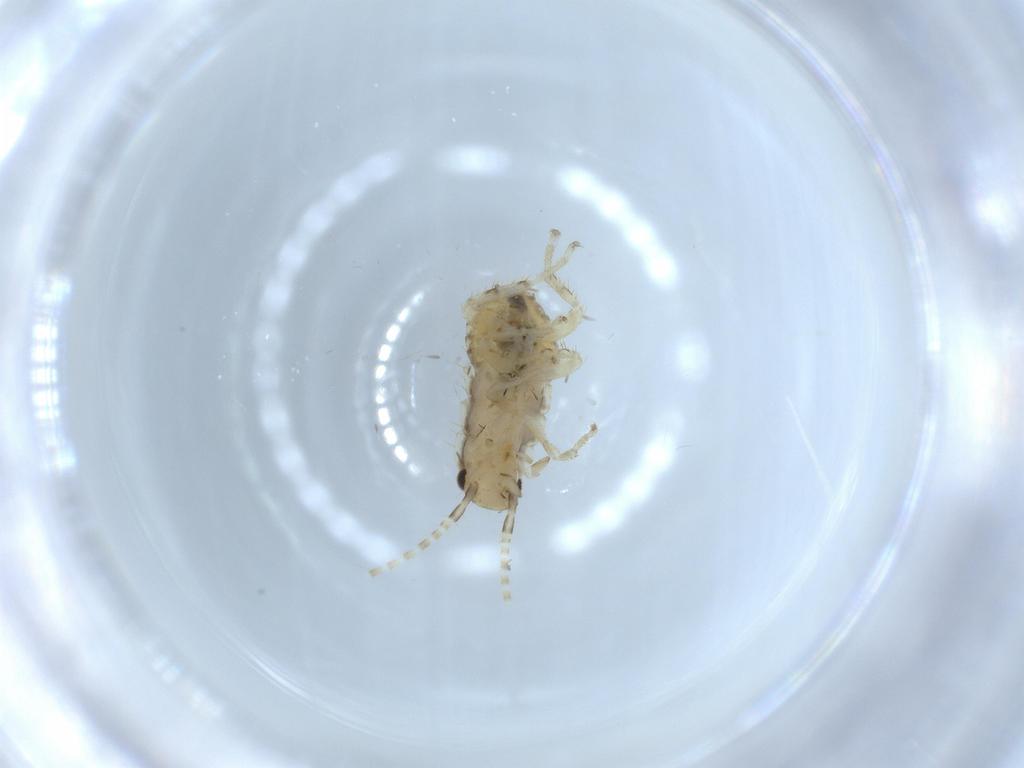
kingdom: Animalia
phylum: Arthropoda
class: Insecta
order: Blattodea
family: Ectobiidae
